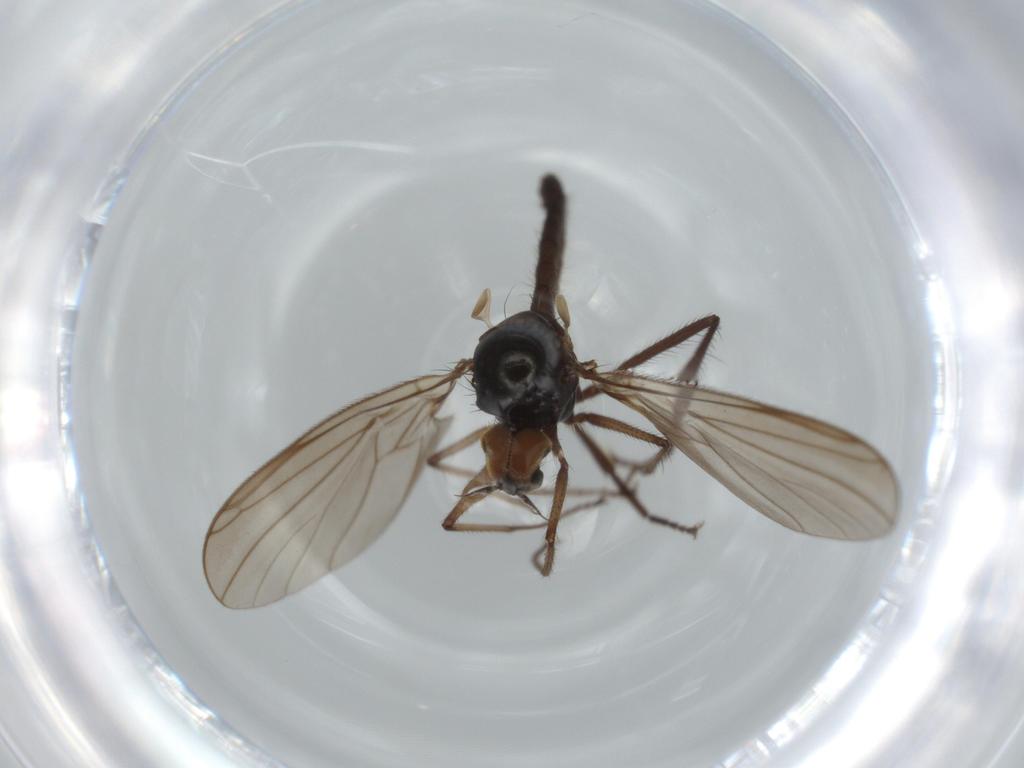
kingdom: Animalia
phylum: Arthropoda
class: Insecta
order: Diptera
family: Hybotidae
